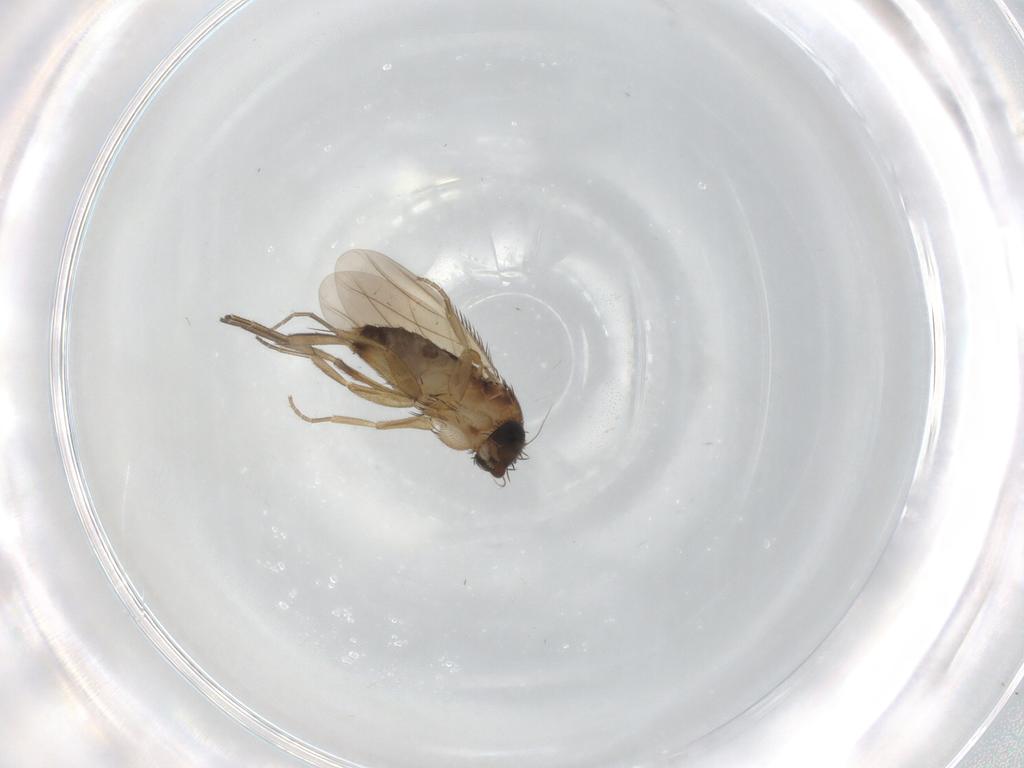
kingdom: Animalia
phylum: Arthropoda
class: Insecta
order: Diptera
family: Phoridae
